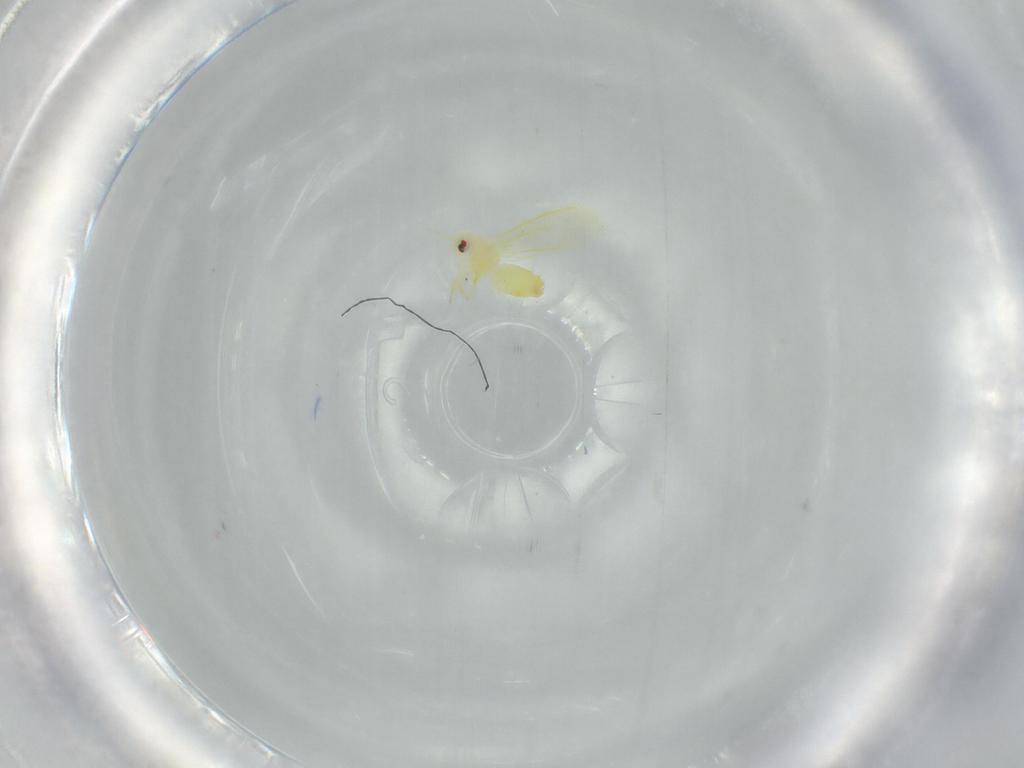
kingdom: Animalia
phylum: Arthropoda
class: Insecta
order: Hemiptera
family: Aleyrodidae
